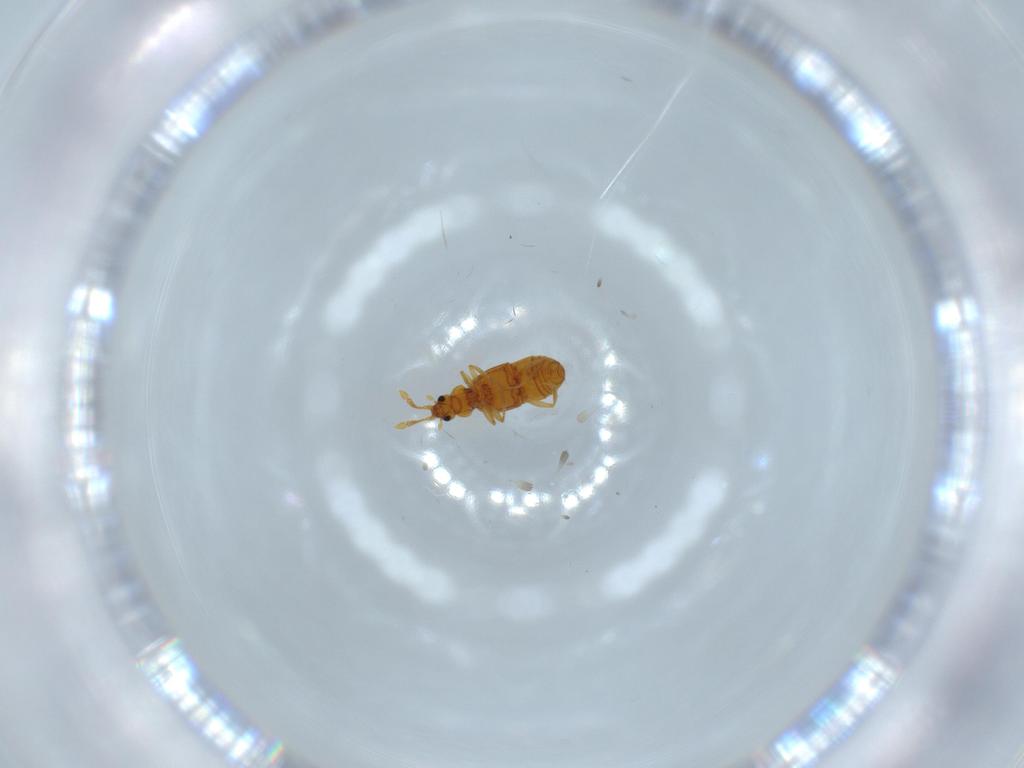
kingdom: Animalia
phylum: Arthropoda
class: Insecta
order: Coleoptera
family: Staphylinidae
